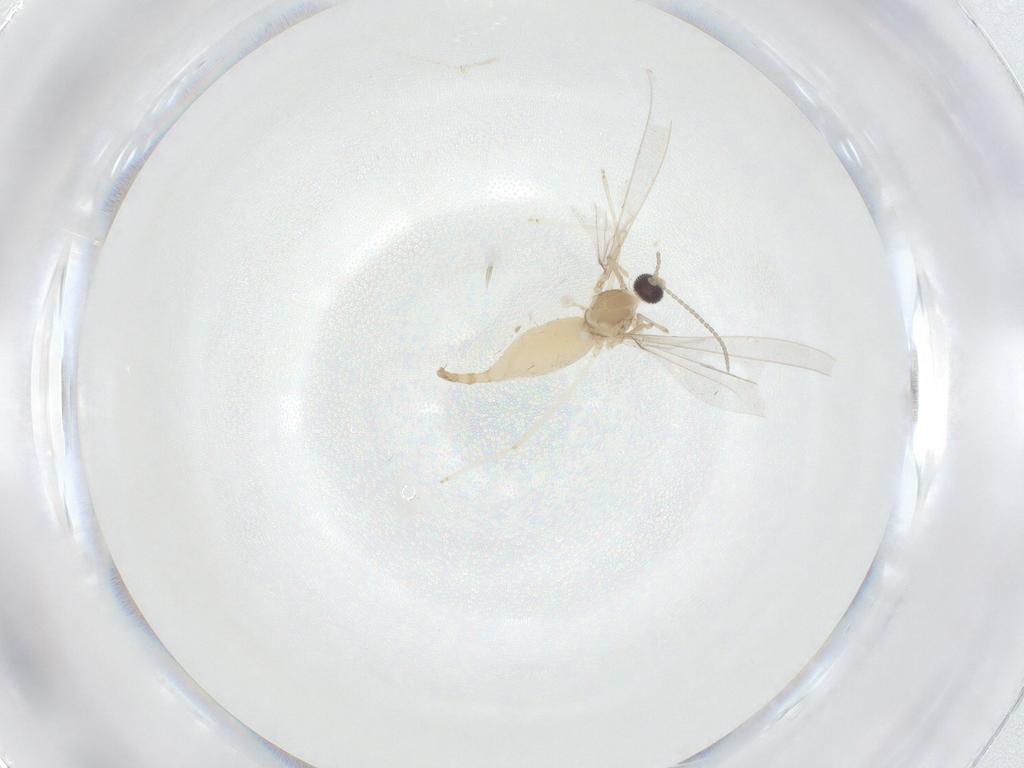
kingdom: Animalia
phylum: Arthropoda
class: Insecta
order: Diptera
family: Cecidomyiidae
